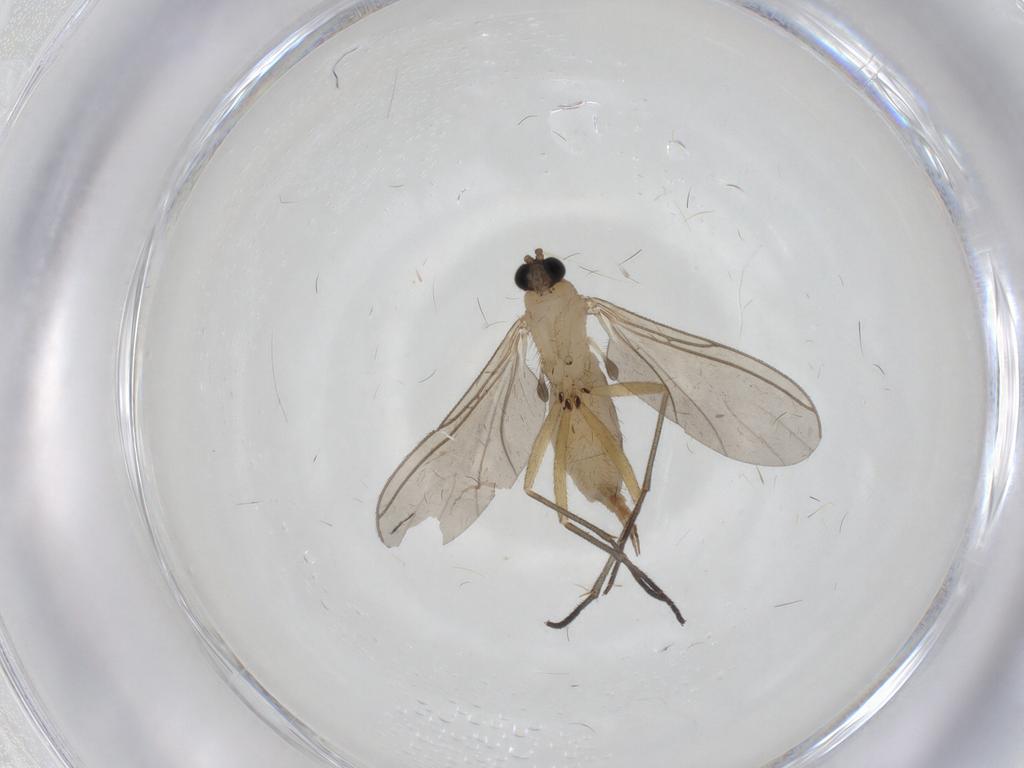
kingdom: Animalia
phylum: Arthropoda
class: Insecta
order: Diptera
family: Sciaridae
